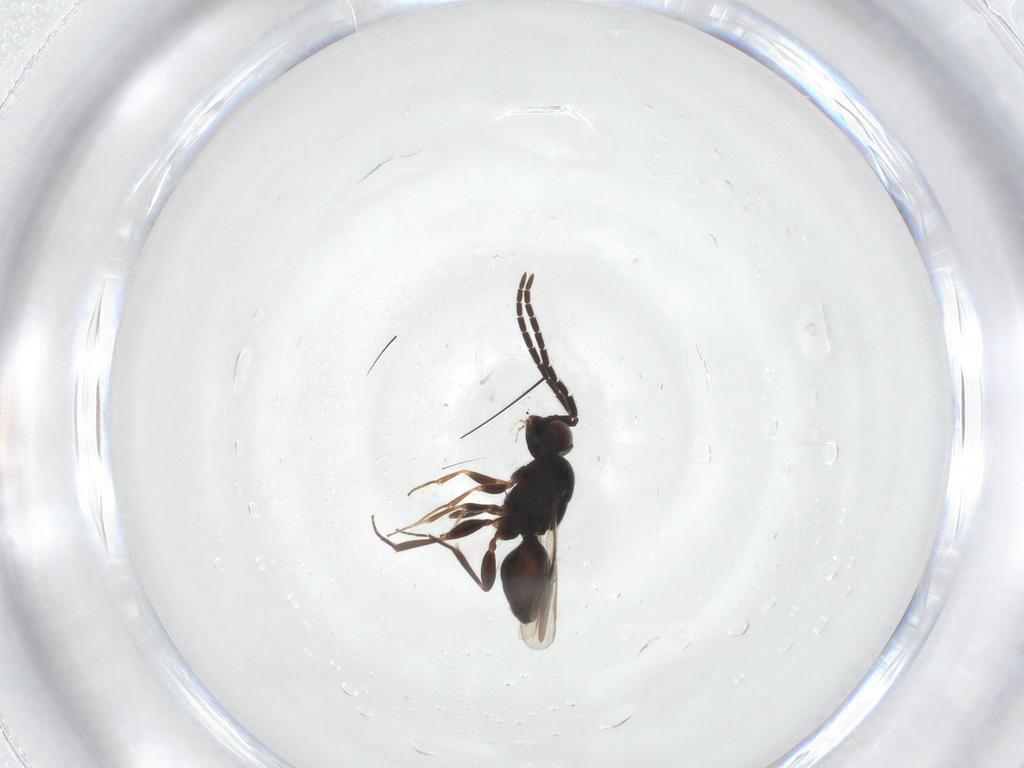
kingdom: Animalia
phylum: Arthropoda
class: Insecta
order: Hymenoptera
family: Megaspilidae
